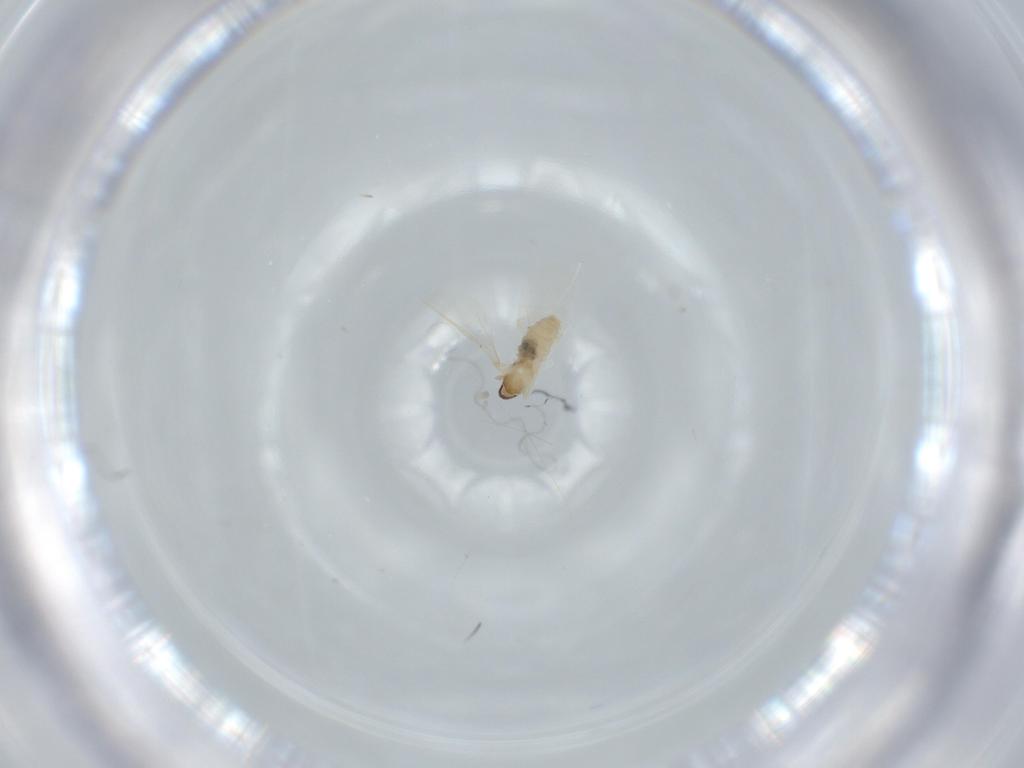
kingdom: Animalia
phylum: Arthropoda
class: Insecta
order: Diptera
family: Cecidomyiidae
